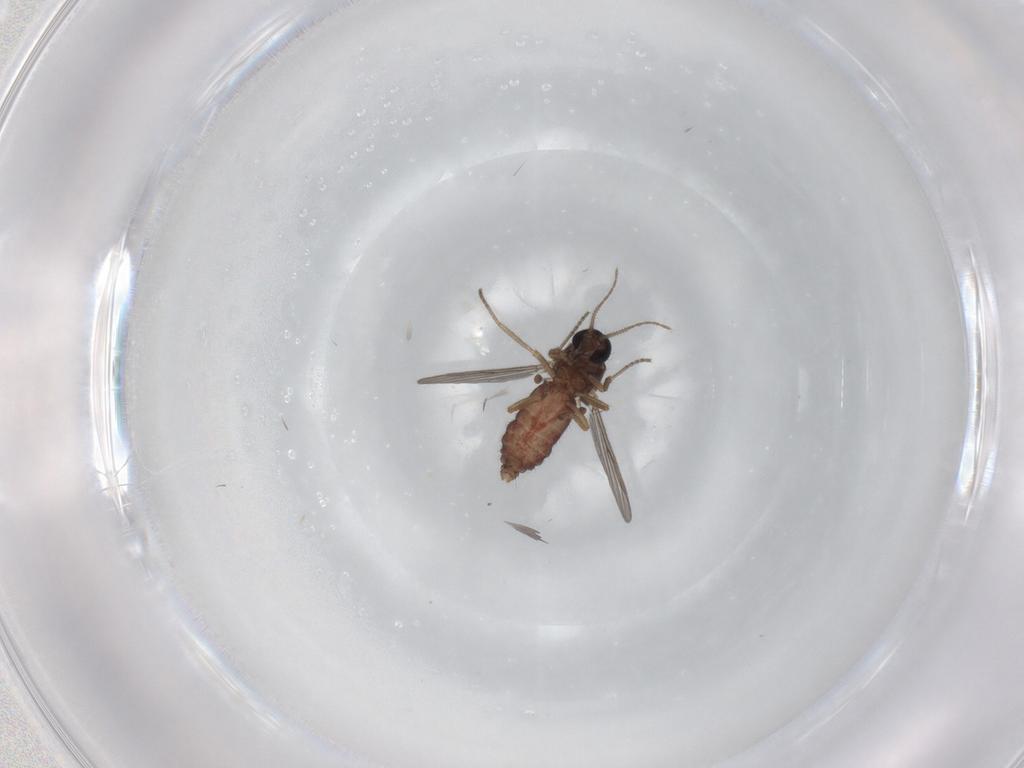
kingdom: Animalia
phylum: Arthropoda
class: Insecta
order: Diptera
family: Ceratopogonidae
